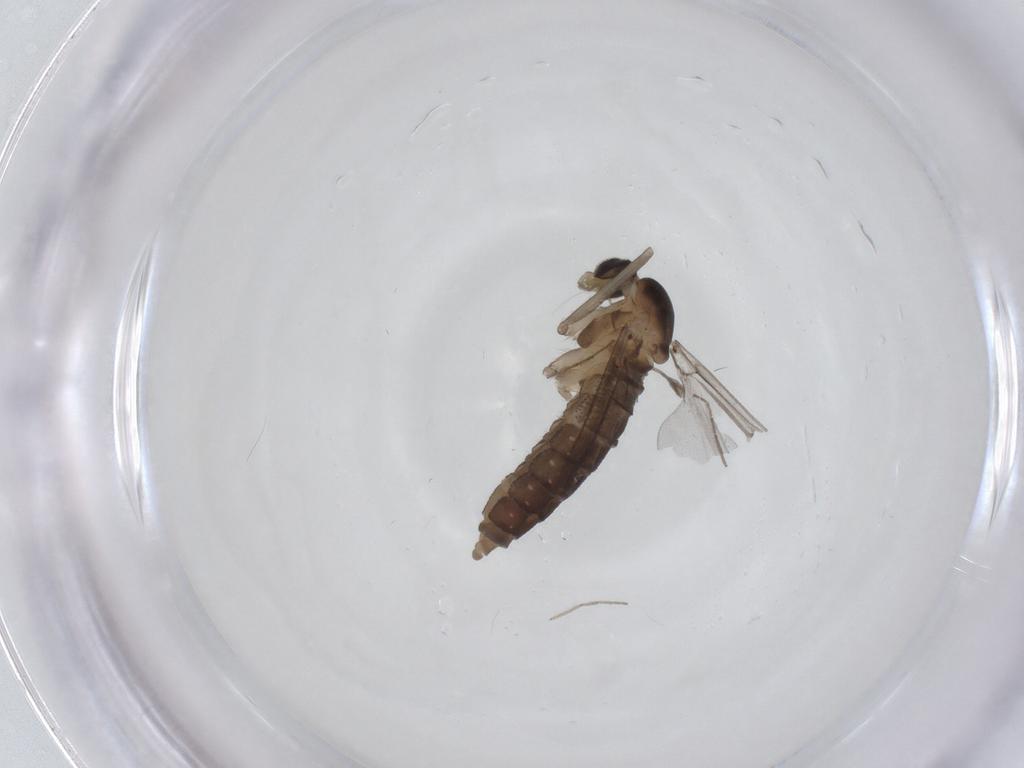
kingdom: Animalia
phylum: Arthropoda
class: Insecta
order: Diptera
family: Cecidomyiidae
